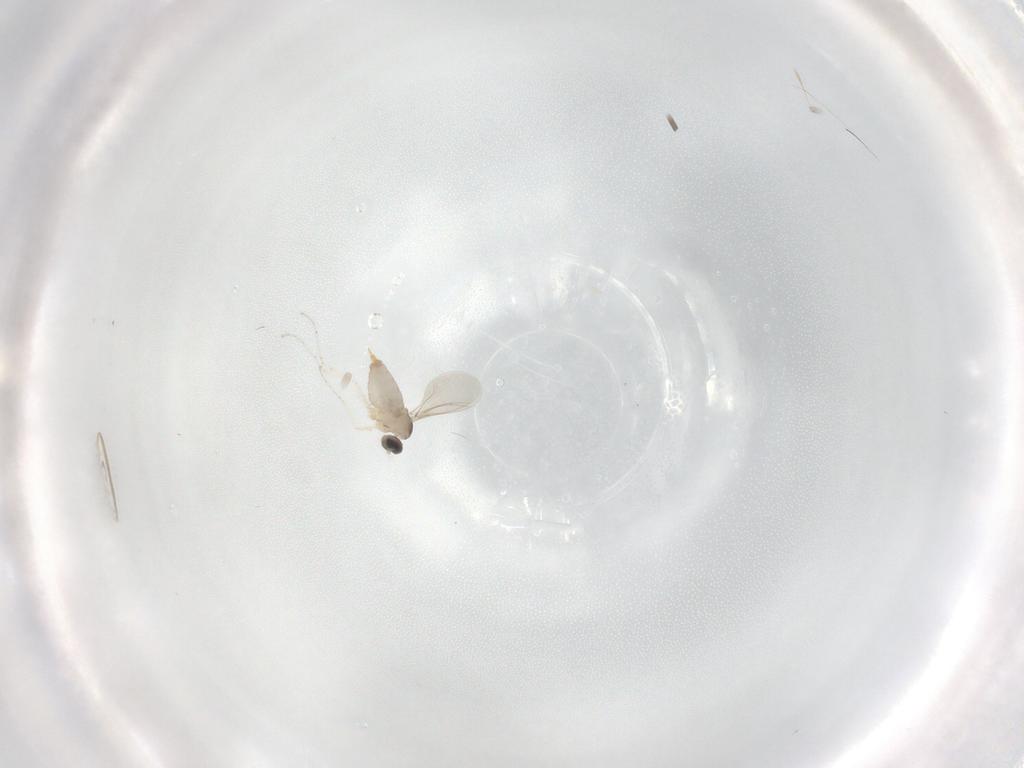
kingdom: Animalia
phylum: Arthropoda
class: Insecta
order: Diptera
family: Cecidomyiidae
